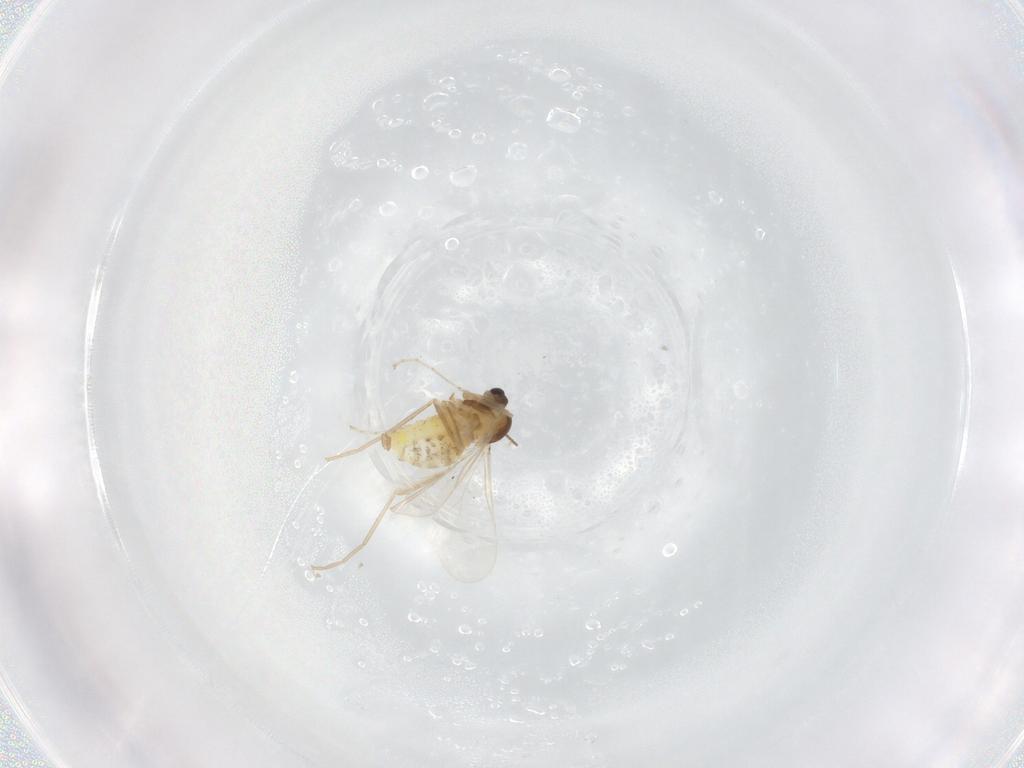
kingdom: Animalia
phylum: Arthropoda
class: Insecta
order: Diptera
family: Cecidomyiidae
